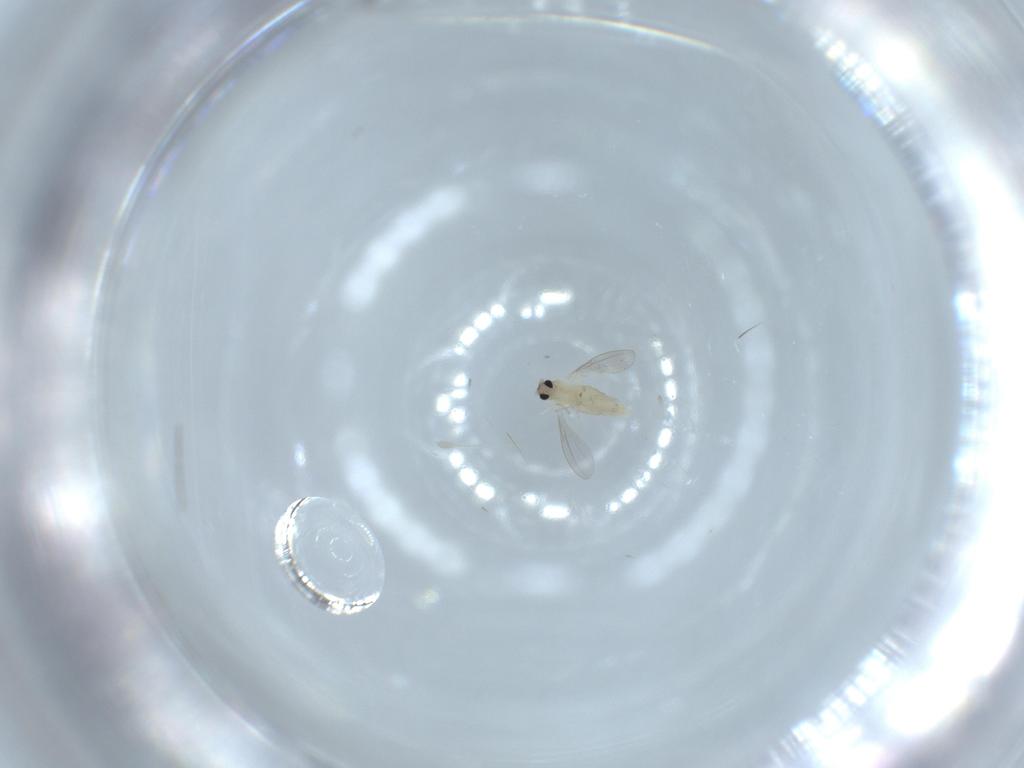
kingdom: Animalia
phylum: Arthropoda
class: Insecta
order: Diptera
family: Cecidomyiidae
